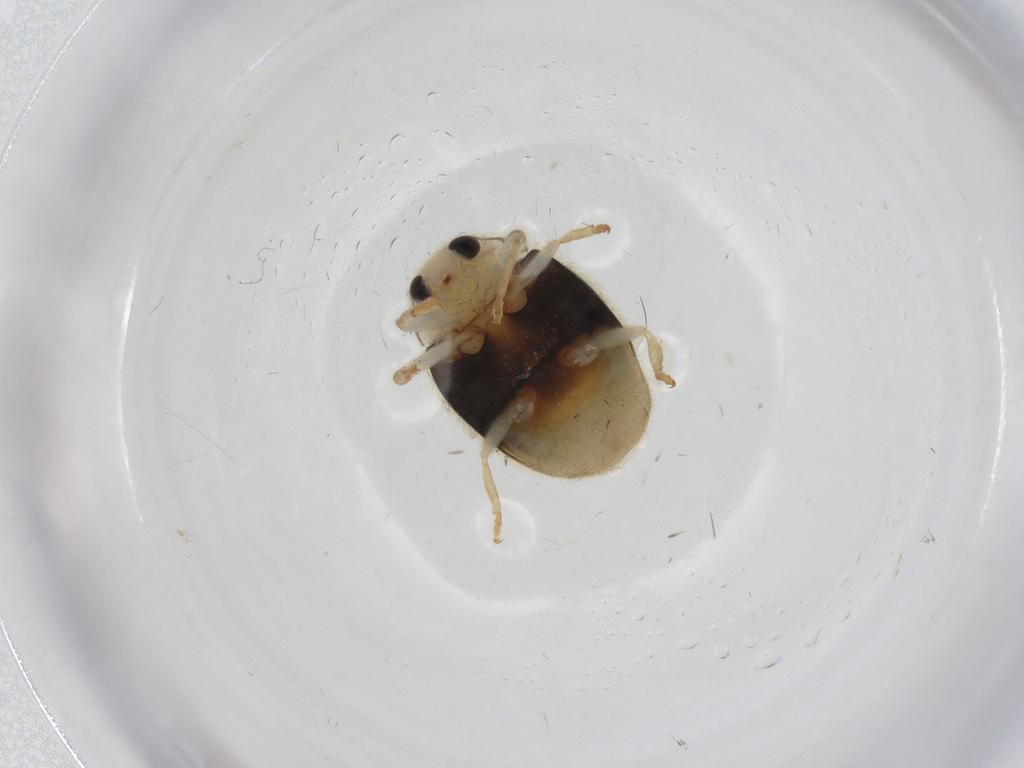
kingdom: Animalia
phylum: Arthropoda
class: Insecta
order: Coleoptera
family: Coccinellidae
